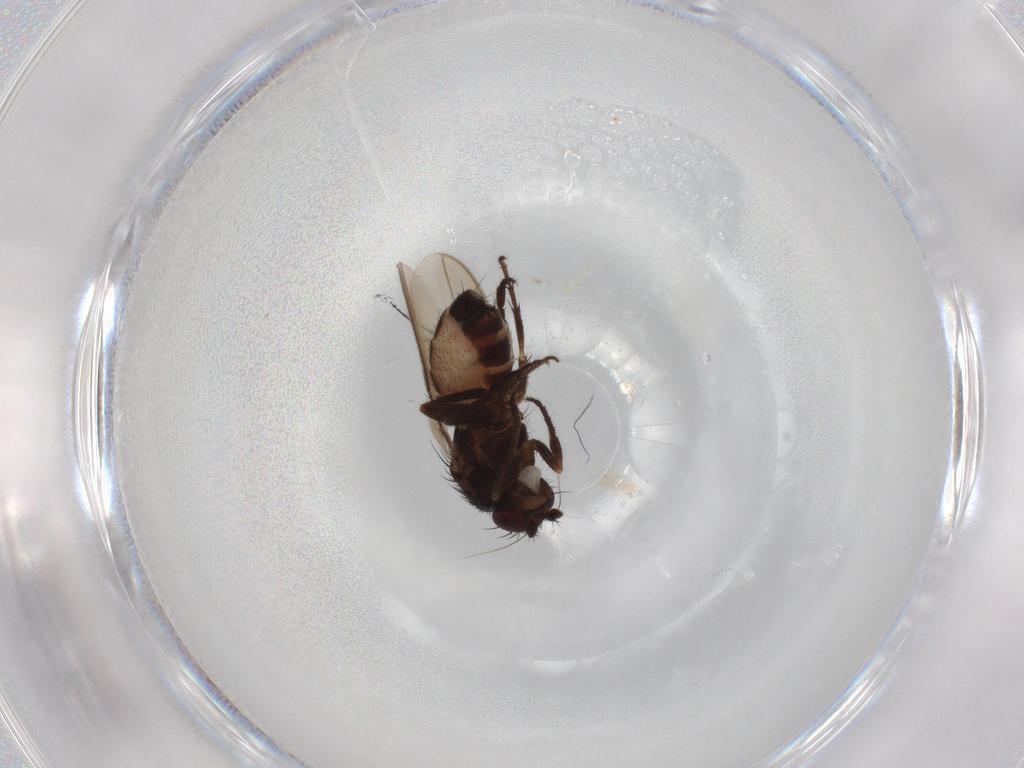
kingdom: Animalia
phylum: Arthropoda
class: Insecta
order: Diptera
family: Sphaeroceridae
